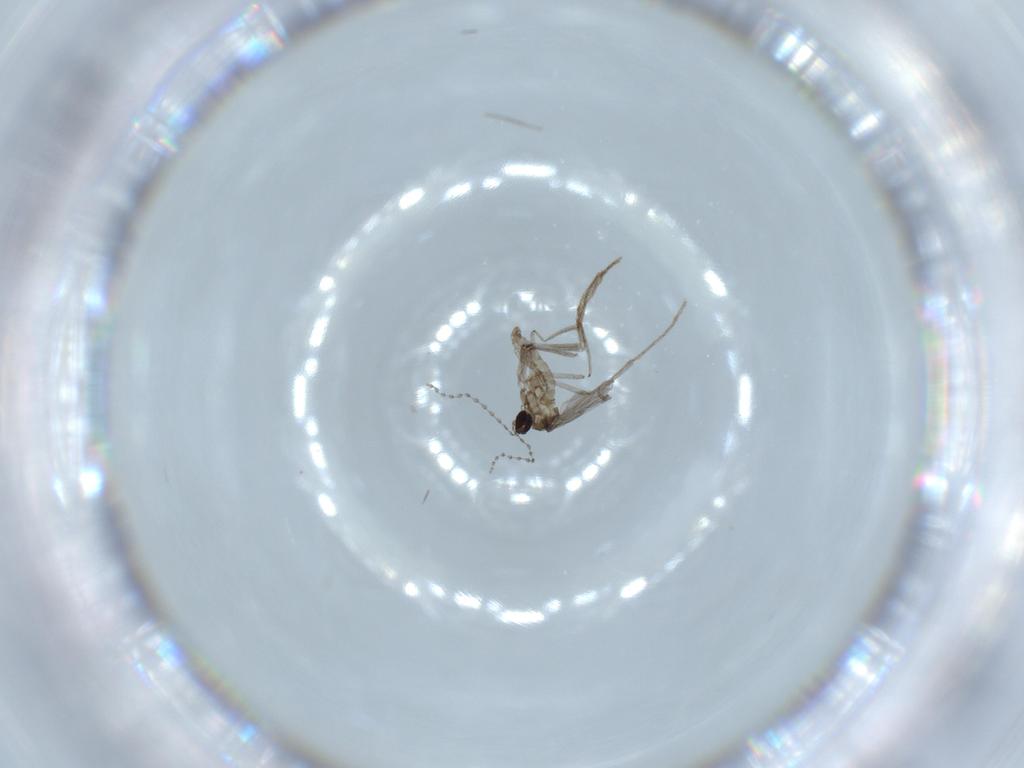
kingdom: Animalia
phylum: Arthropoda
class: Insecta
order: Diptera
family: Cecidomyiidae
